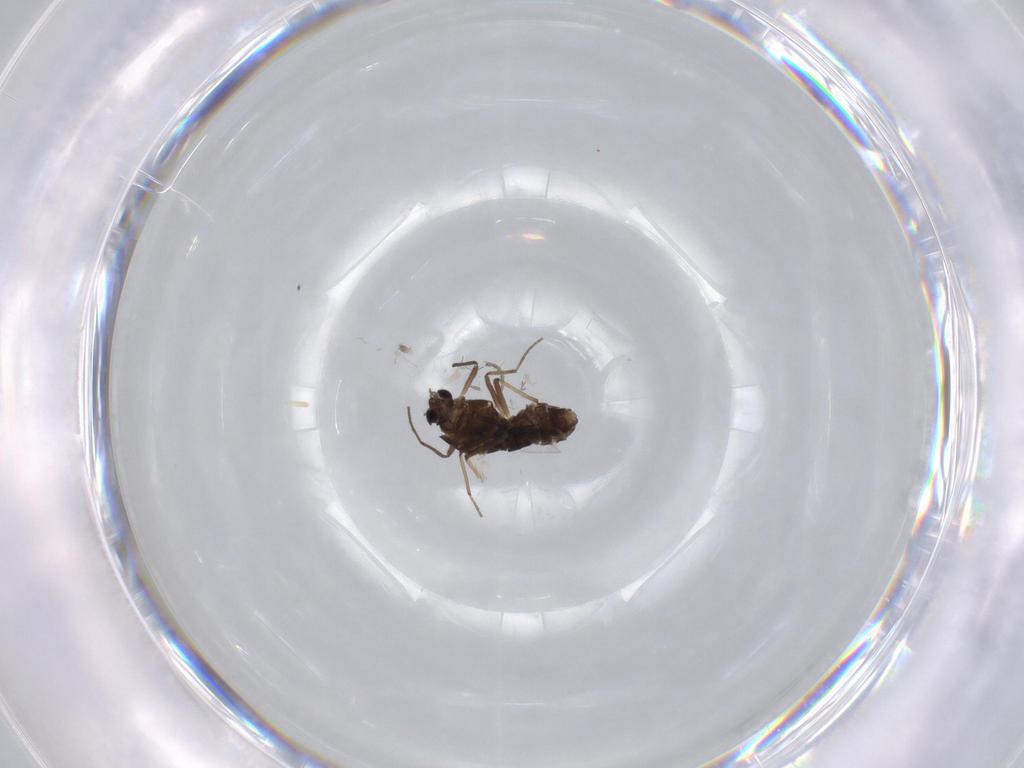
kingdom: Animalia
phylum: Arthropoda
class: Insecta
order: Diptera
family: Chironomidae
